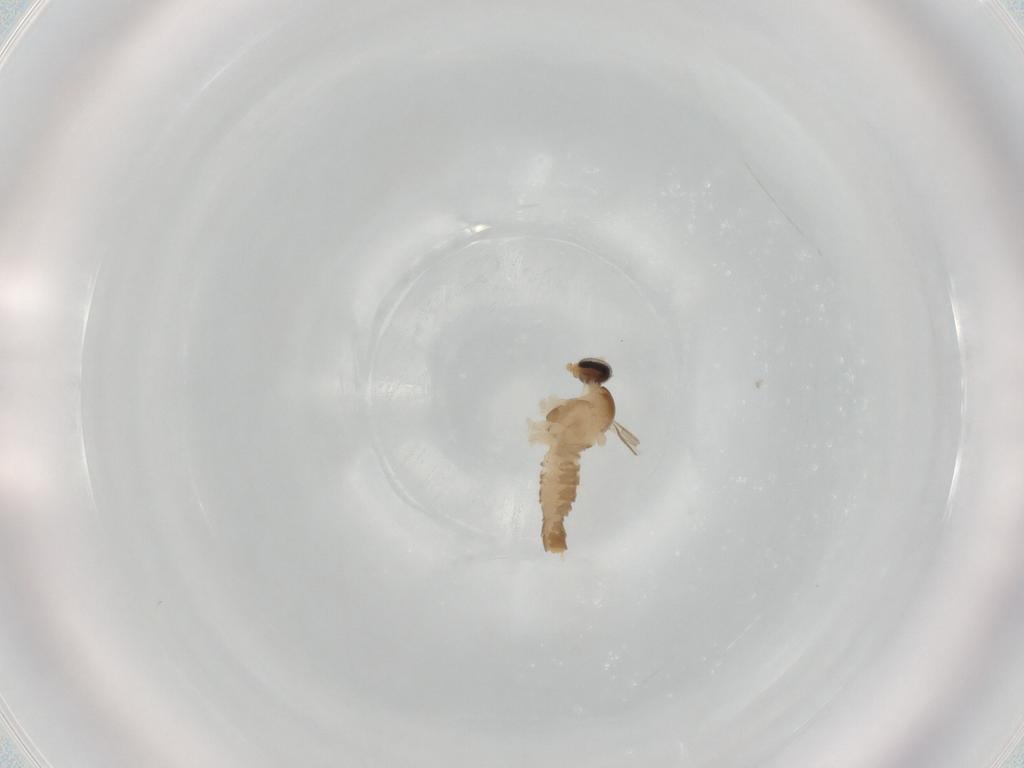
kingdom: Animalia
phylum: Arthropoda
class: Insecta
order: Diptera
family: Cecidomyiidae
